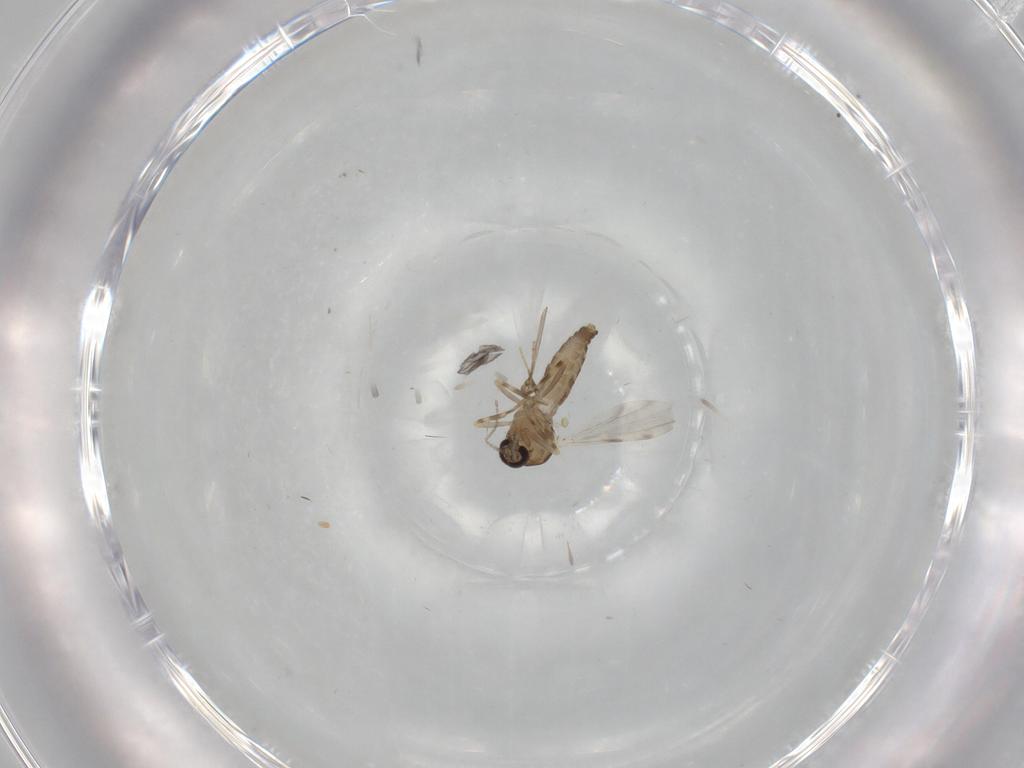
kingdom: Animalia
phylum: Arthropoda
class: Insecta
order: Diptera
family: Ceratopogonidae
